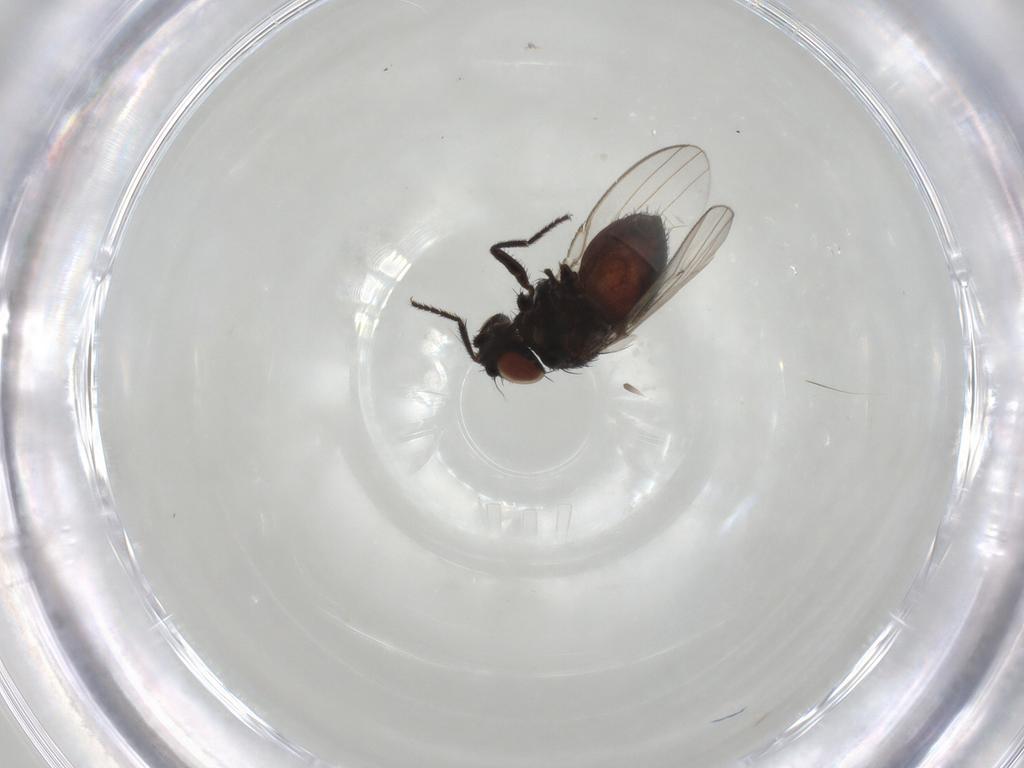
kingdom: Animalia
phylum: Arthropoda
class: Insecta
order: Diptera
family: Milichiidae
